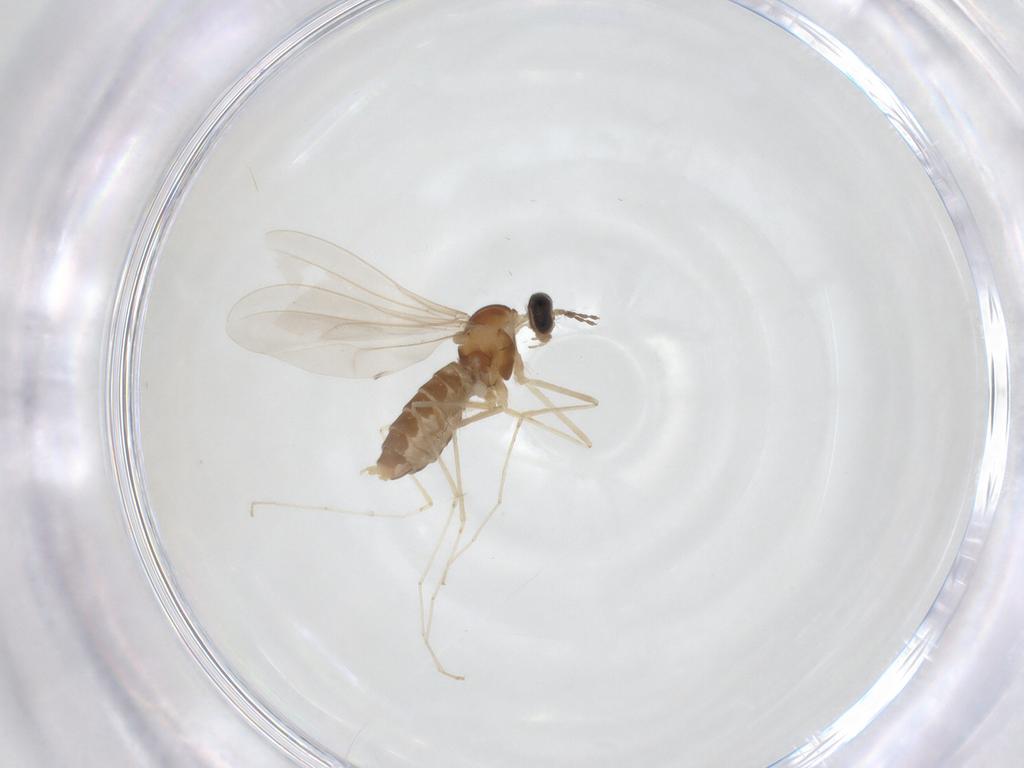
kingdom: Animalia
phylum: Arthropoda
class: Insecta
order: Diptera
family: Cecidomyiidae
